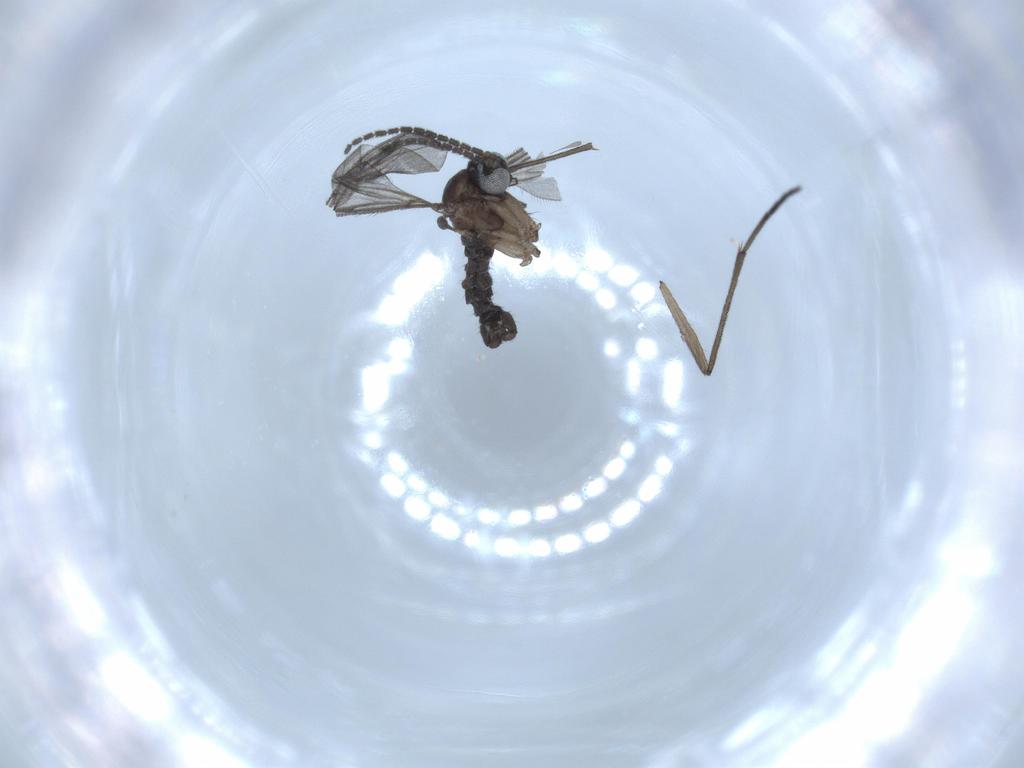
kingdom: Animalia
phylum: Arthropoda
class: Insecta
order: Diptera
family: Sciaridae
